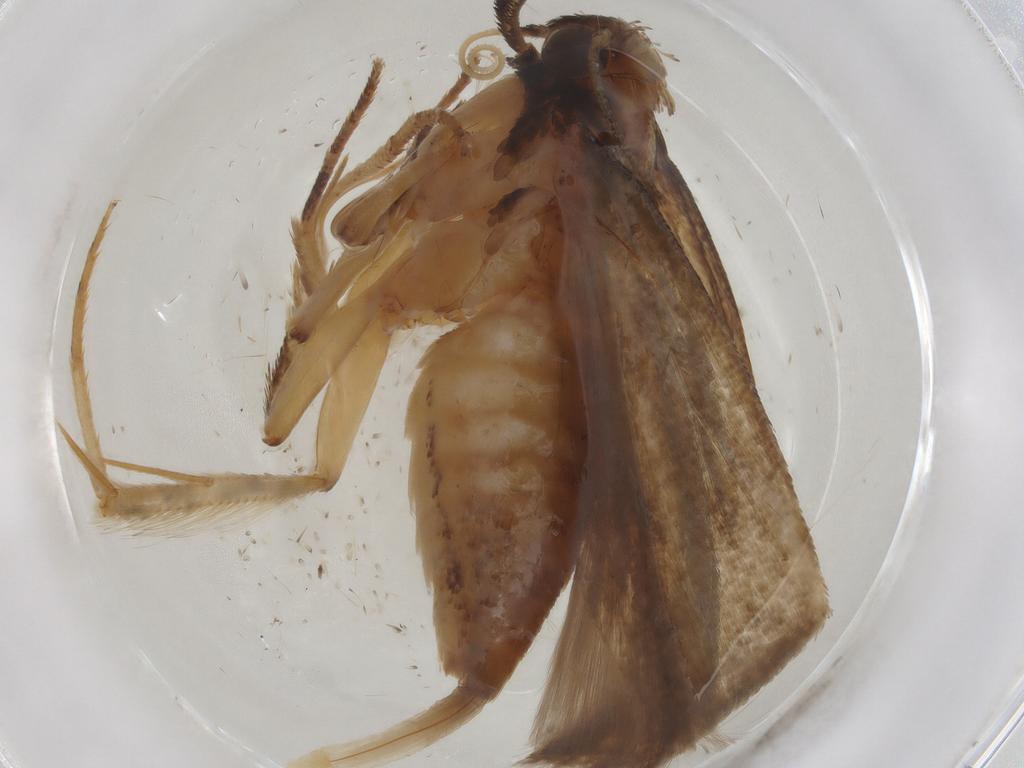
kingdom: Animalia
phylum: Arthropoda
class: Insecta
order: Lepidoptera
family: Gelechiidae
